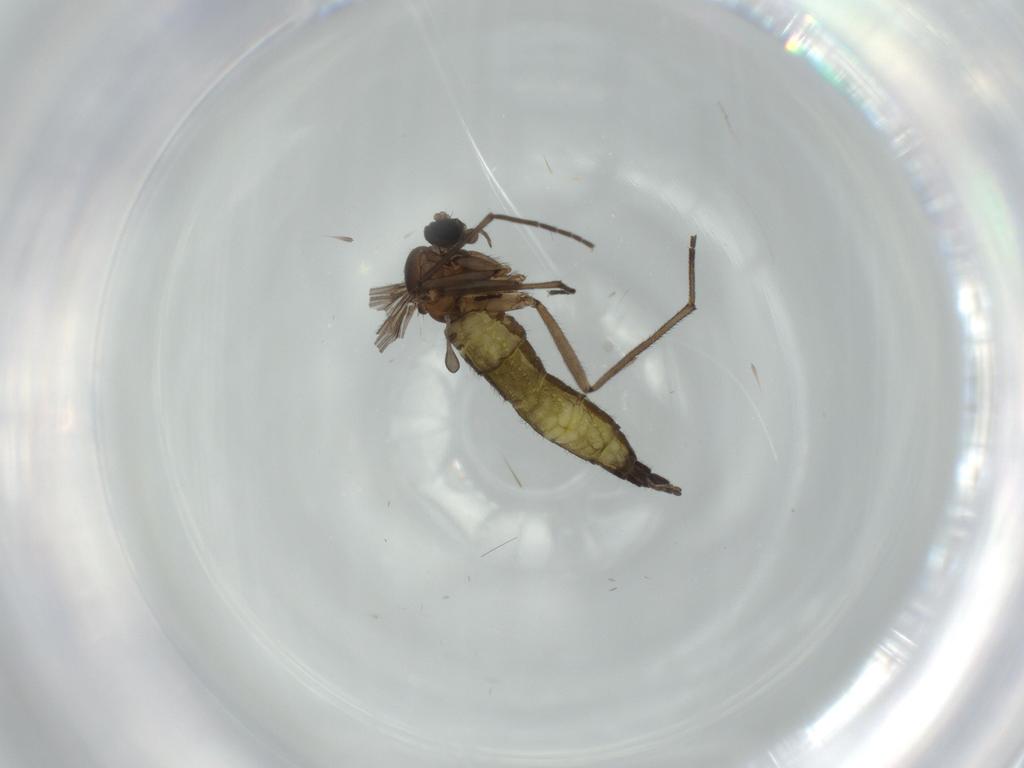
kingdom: Animalia
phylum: Arthropoda
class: Insecta
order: Diptera
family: Sciaridae
